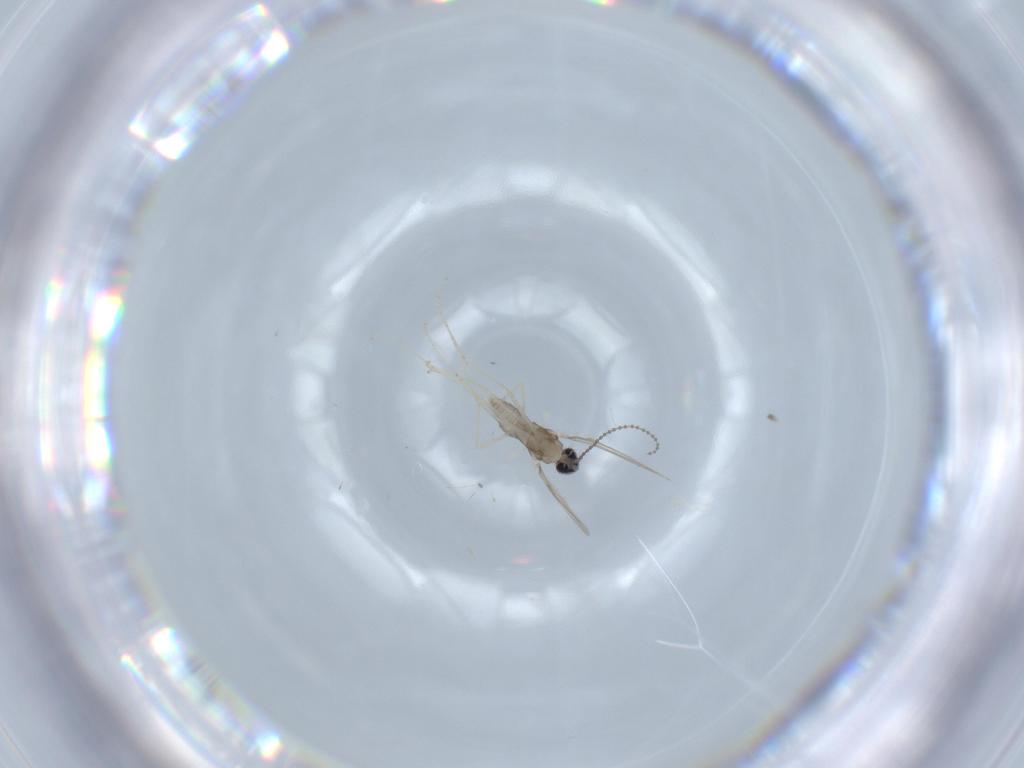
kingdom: Animalia
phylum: Arthropoda
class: Insecta
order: Diptera
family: Cecidomyiidae
